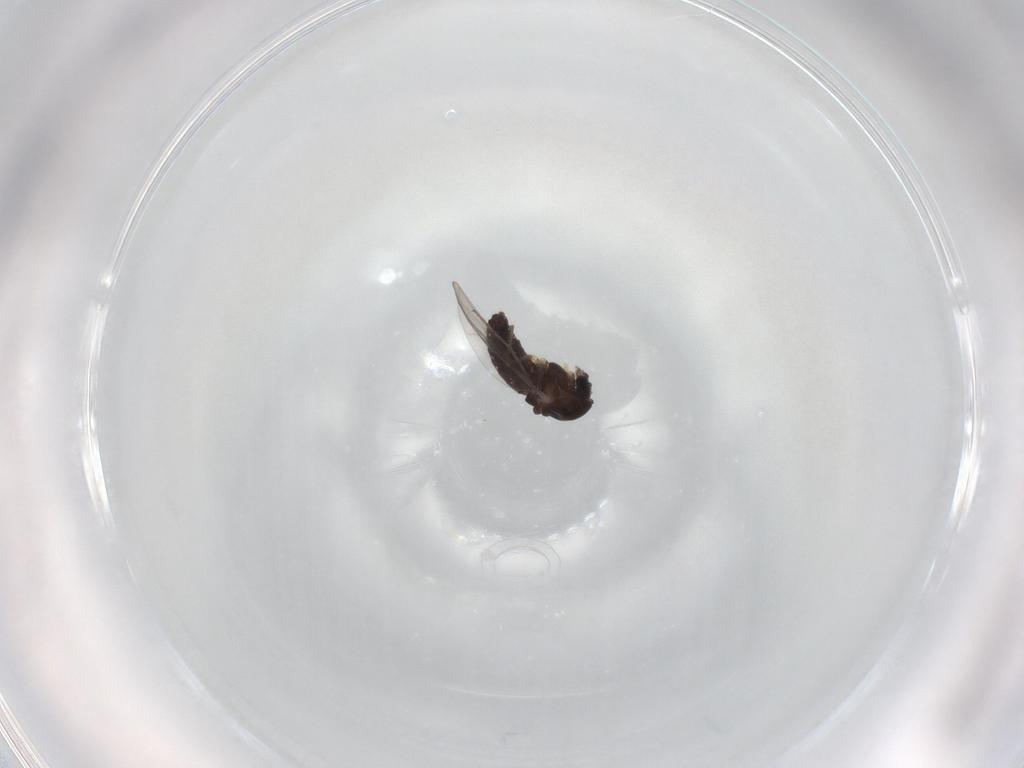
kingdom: Animalia
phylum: Arthropoda
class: Insecta
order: Diptera
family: Chironomidae
